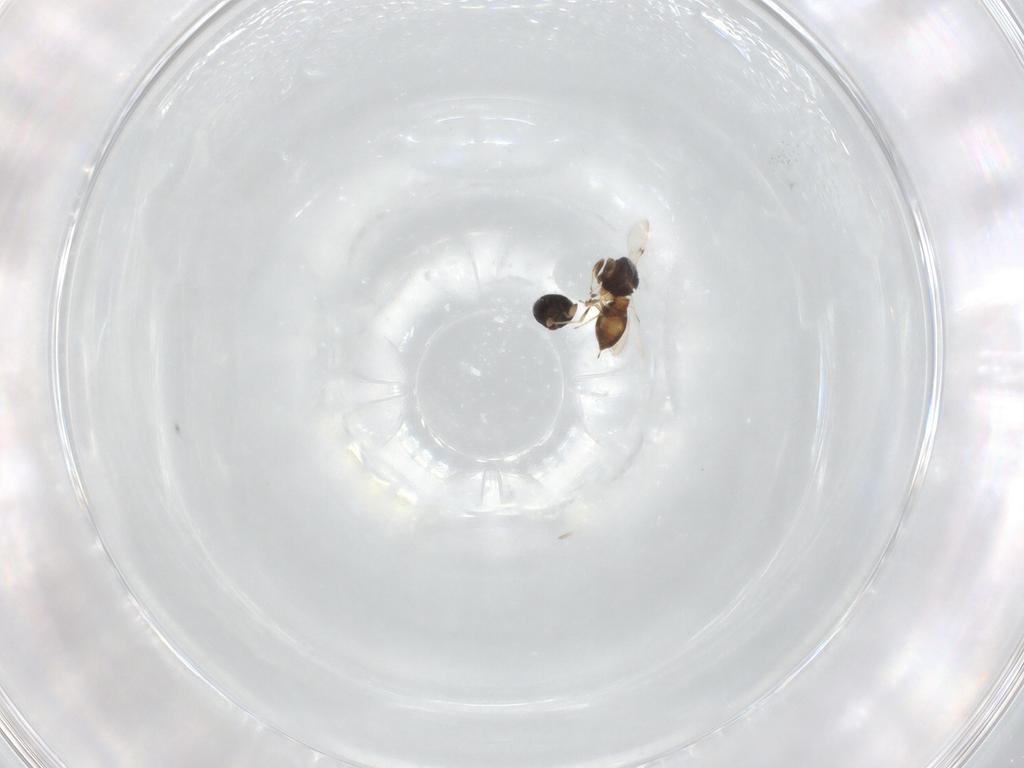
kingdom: Animalia
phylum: Arthropoda
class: Insecta
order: Hymenoptera
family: Scelionidae
